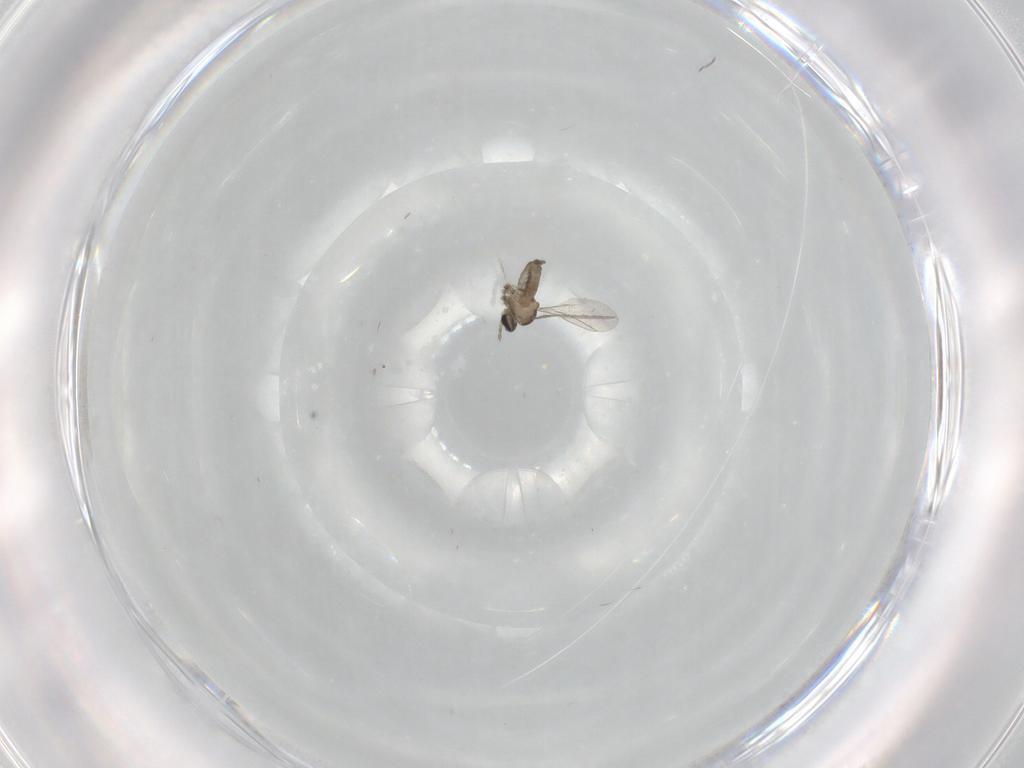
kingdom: Animalia
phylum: Arthropoda
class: Insecta
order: Diptera
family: Cecidomyiidae
